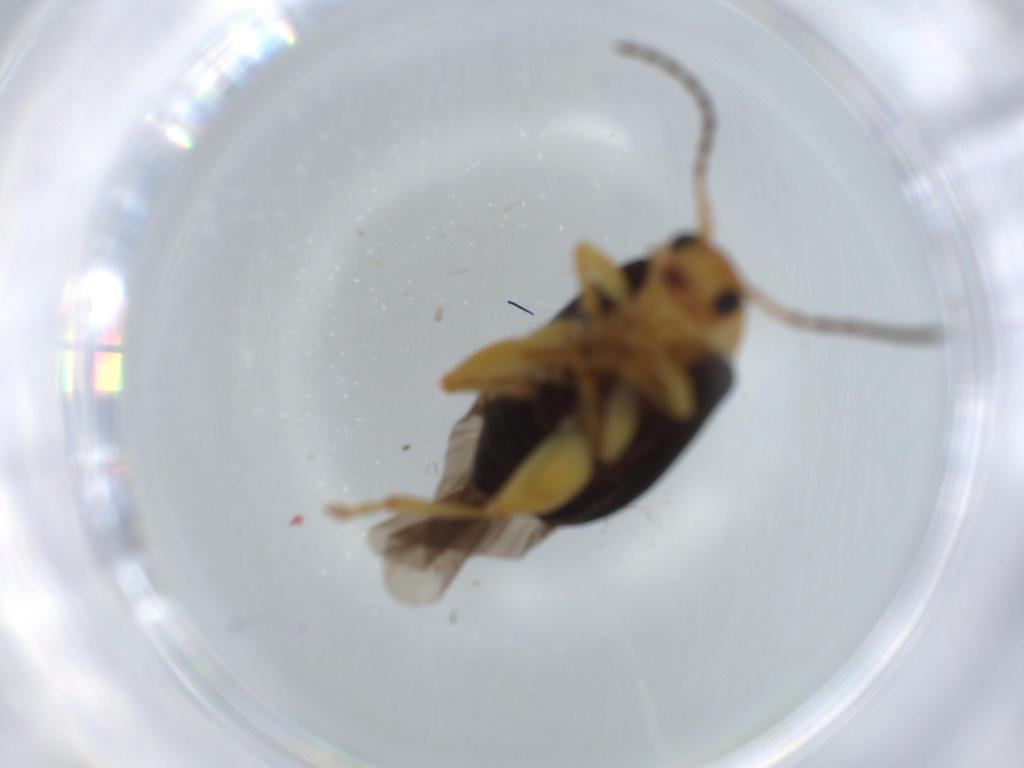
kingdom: Animalia
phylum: Arthropoda
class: Insecta
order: Coleoptera
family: Chrysomelidae
